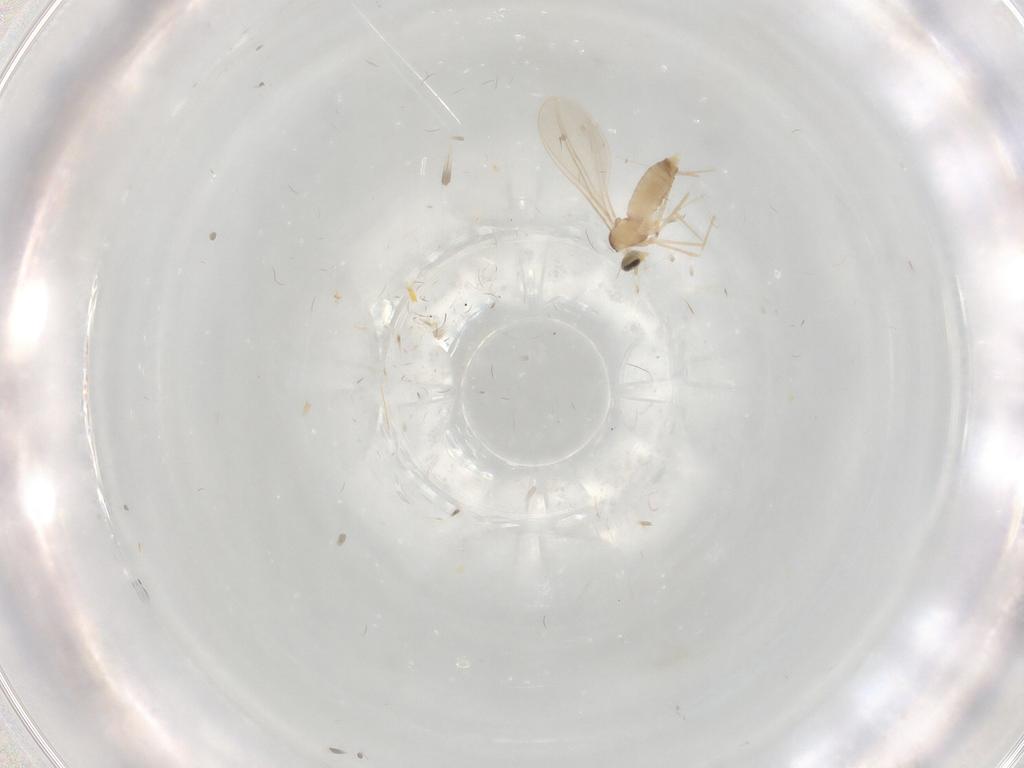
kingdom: Animalia
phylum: Arthropoda
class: Insecta
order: Diptera
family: Cecidomyiidae
